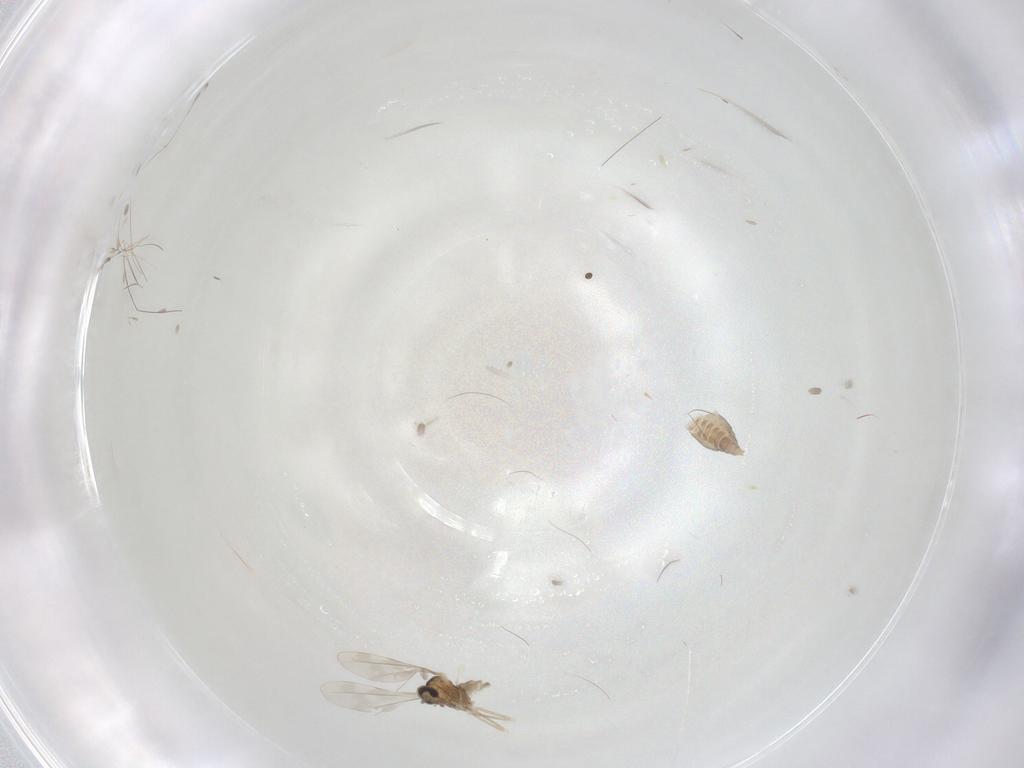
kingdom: Animalia
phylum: Arthropoda
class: Insecta
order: Diptera
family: Cecidomyiidae
